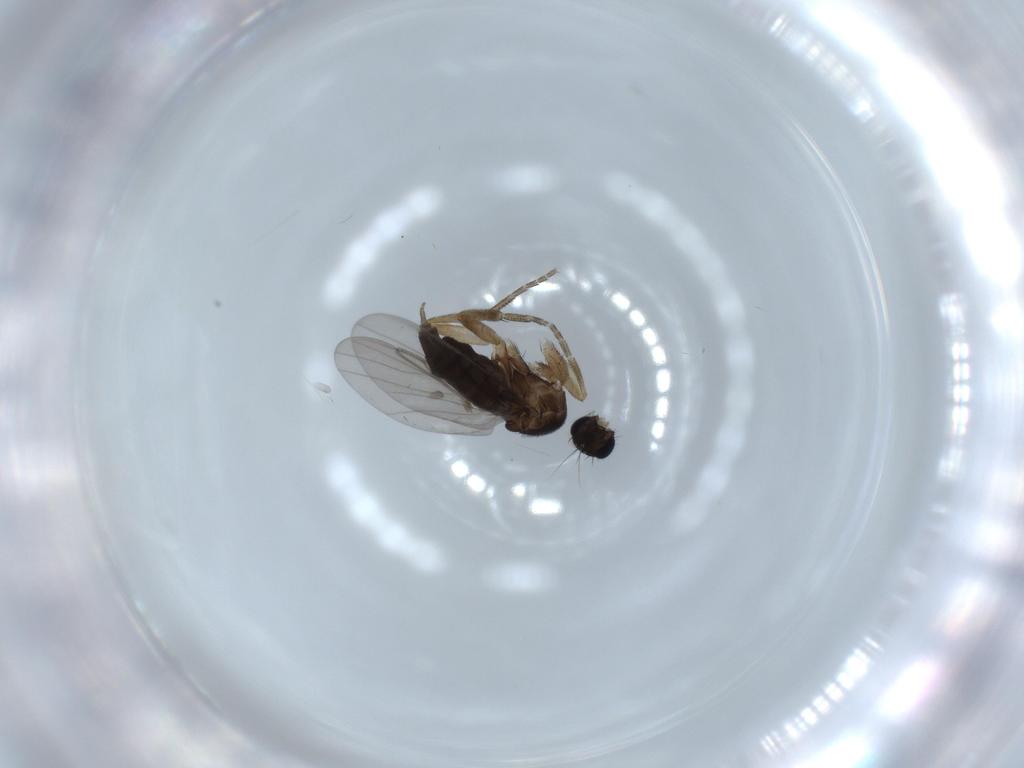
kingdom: Animalia
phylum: Arthropoda
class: Insecta
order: Diptera
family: Phoridae
